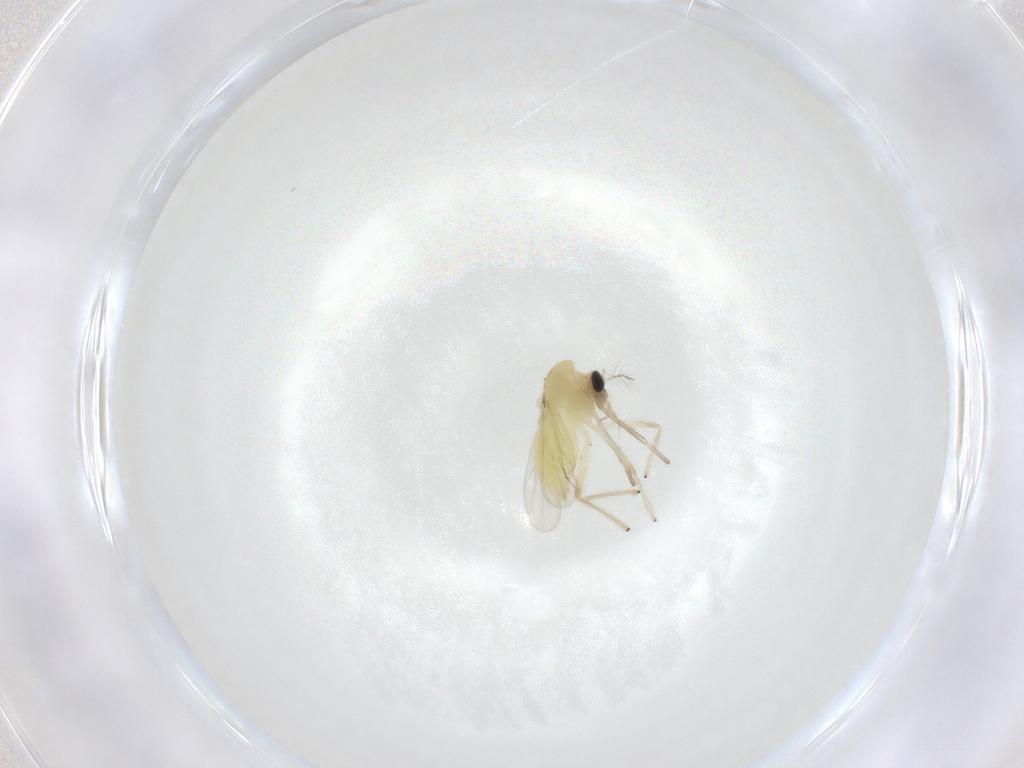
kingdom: Animalia
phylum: Arthropoda
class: Insecta
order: Diptera
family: Chironomidae
